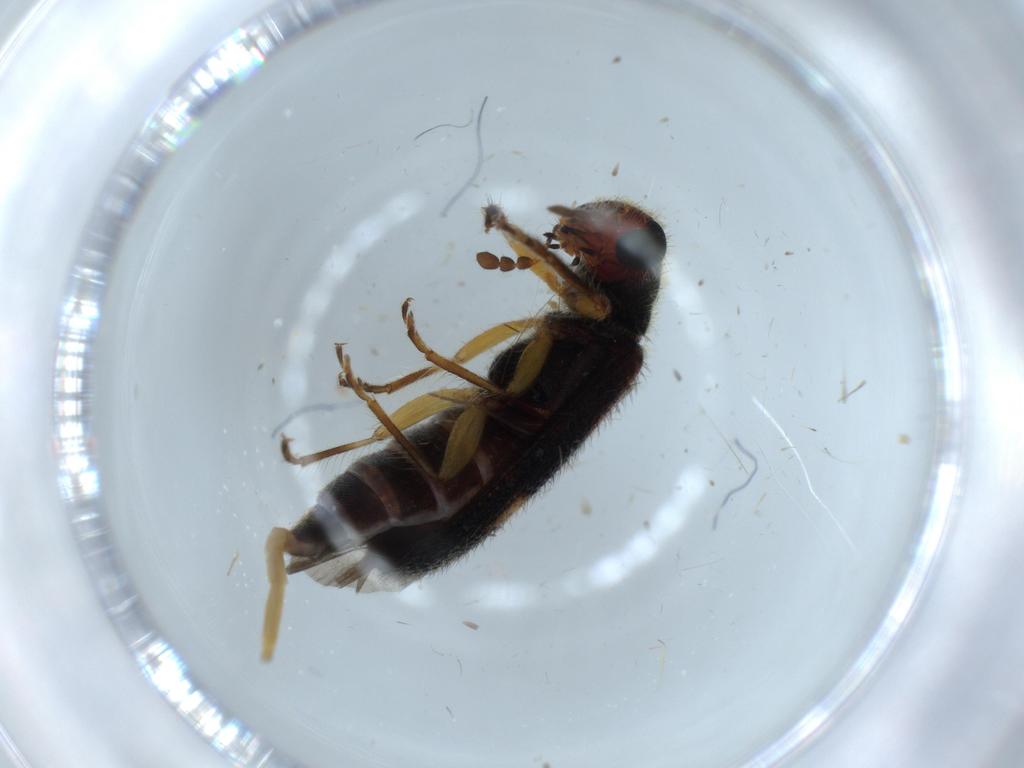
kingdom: Animalia
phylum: Arthropoda
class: Insecta
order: Coleoptera
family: Cleridae
